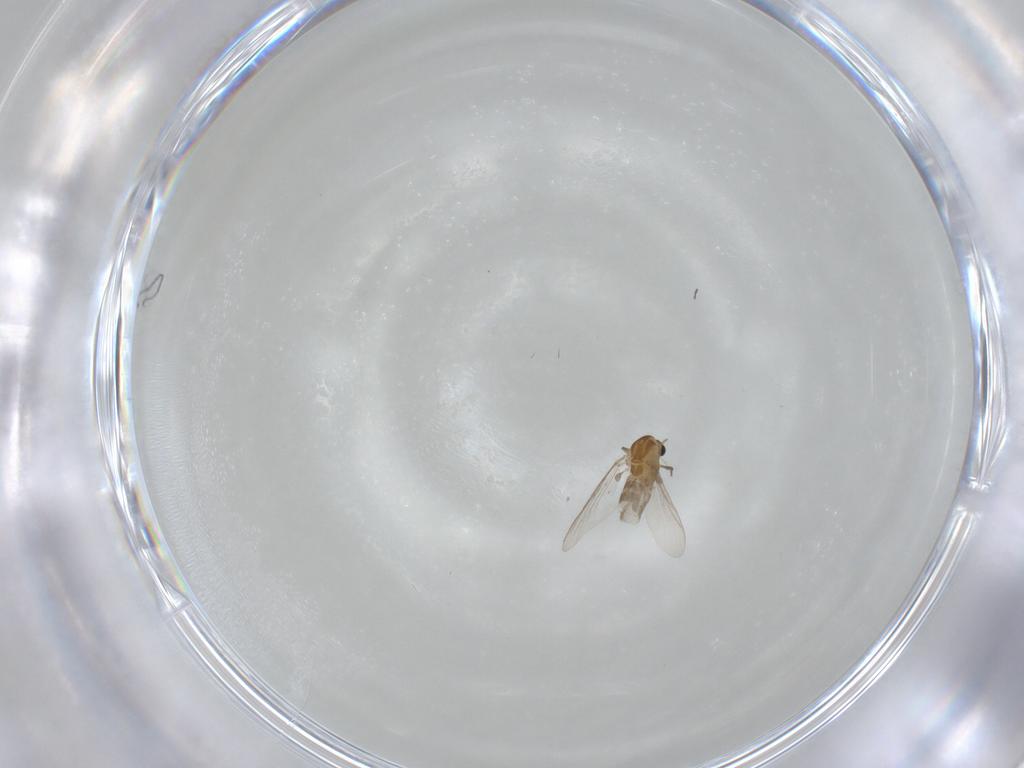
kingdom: Animalia
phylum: Arthropoda
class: Insecta
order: Diptera
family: Chironomidae
